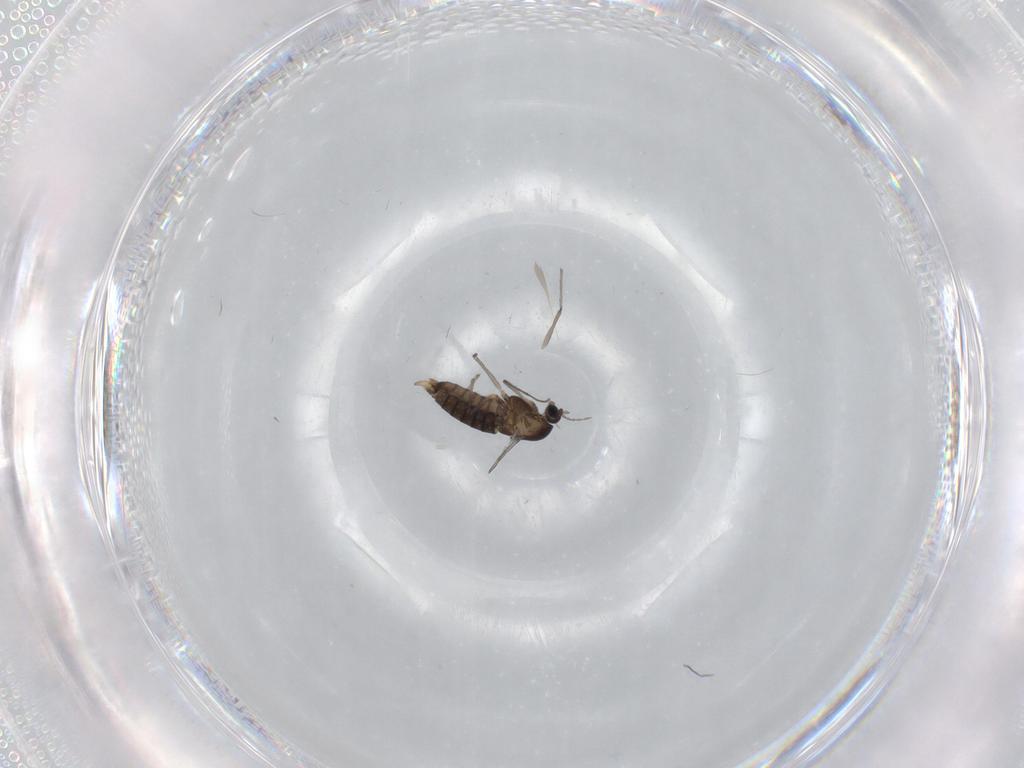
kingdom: Animalia
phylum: Arthropoda
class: Insecta
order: Diptera
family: Chironomidae
